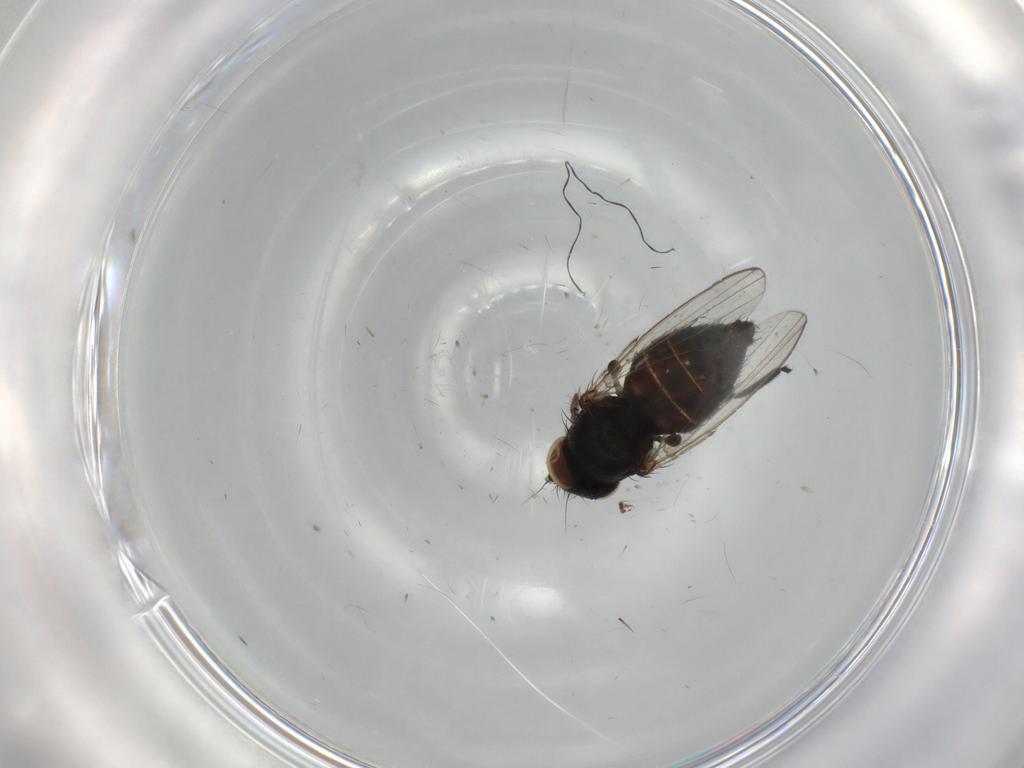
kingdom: Animalia
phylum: Arthropoda
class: Insecta
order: Diptera
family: Milichiidae
